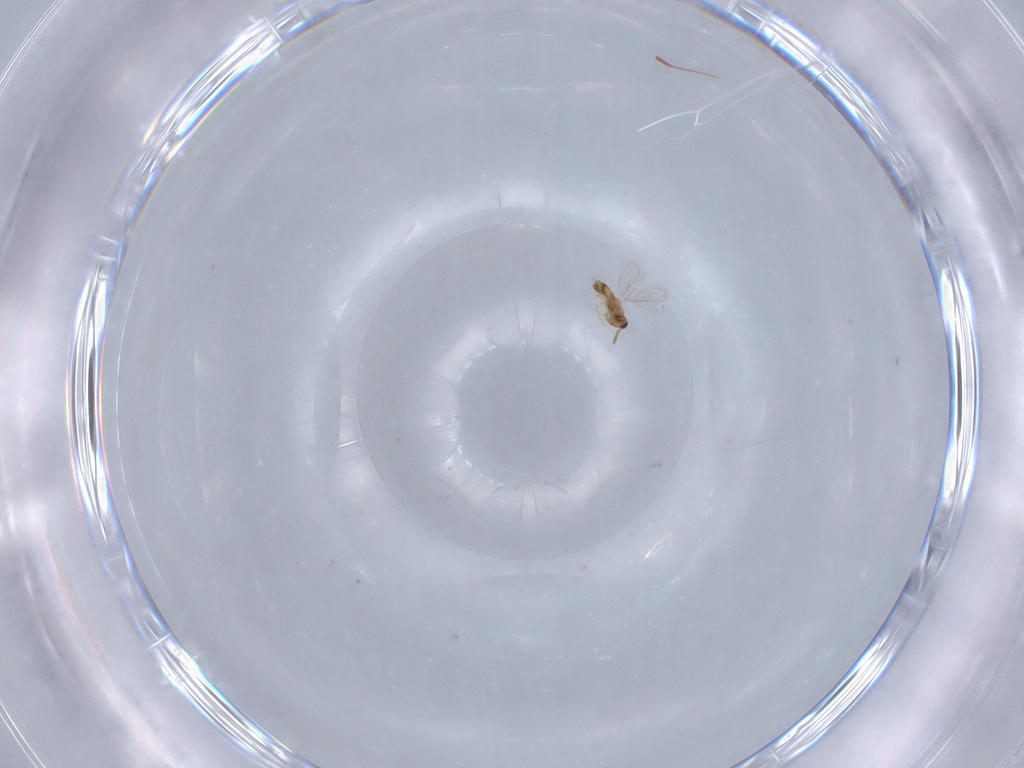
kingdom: Animalia
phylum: Arthropoda
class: Insecta
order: Hymenoptera
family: Aphelinidae
